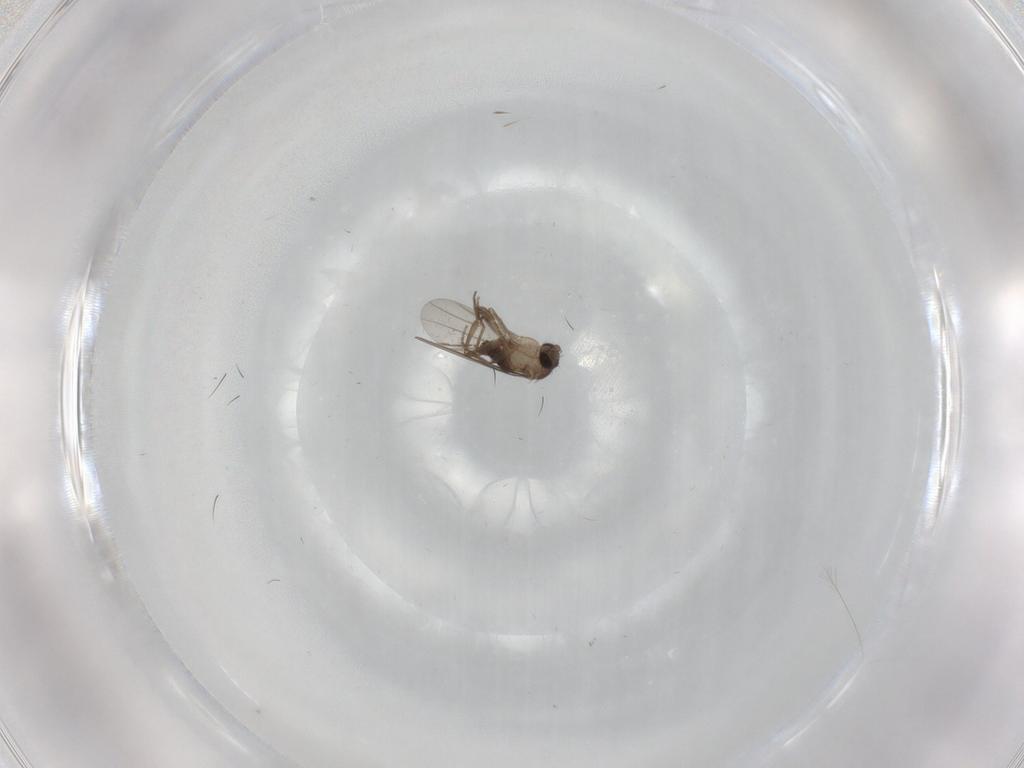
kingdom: Animalia
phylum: Arthropoda
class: Insecta
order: Diptera
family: Phoridae
